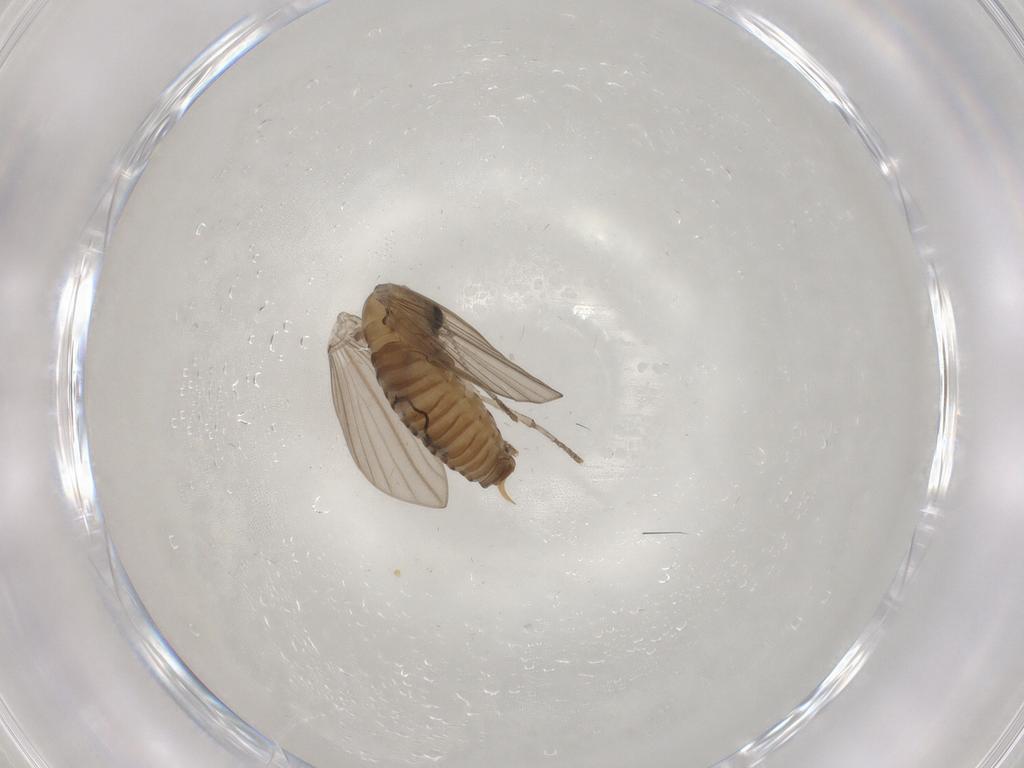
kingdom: Animalia
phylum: Arthropoda
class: Insecta
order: Diptera
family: Psychodidae
